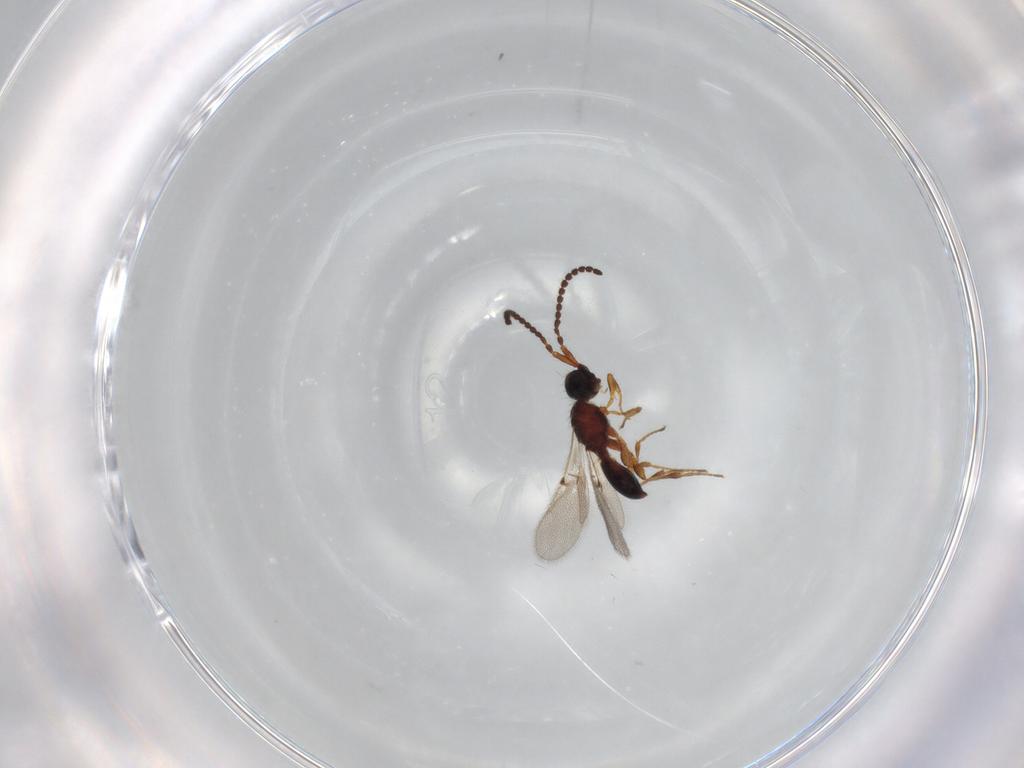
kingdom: Animalia
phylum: Arthropoda
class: Insecta
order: Hymenoptera
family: Diapriidae
